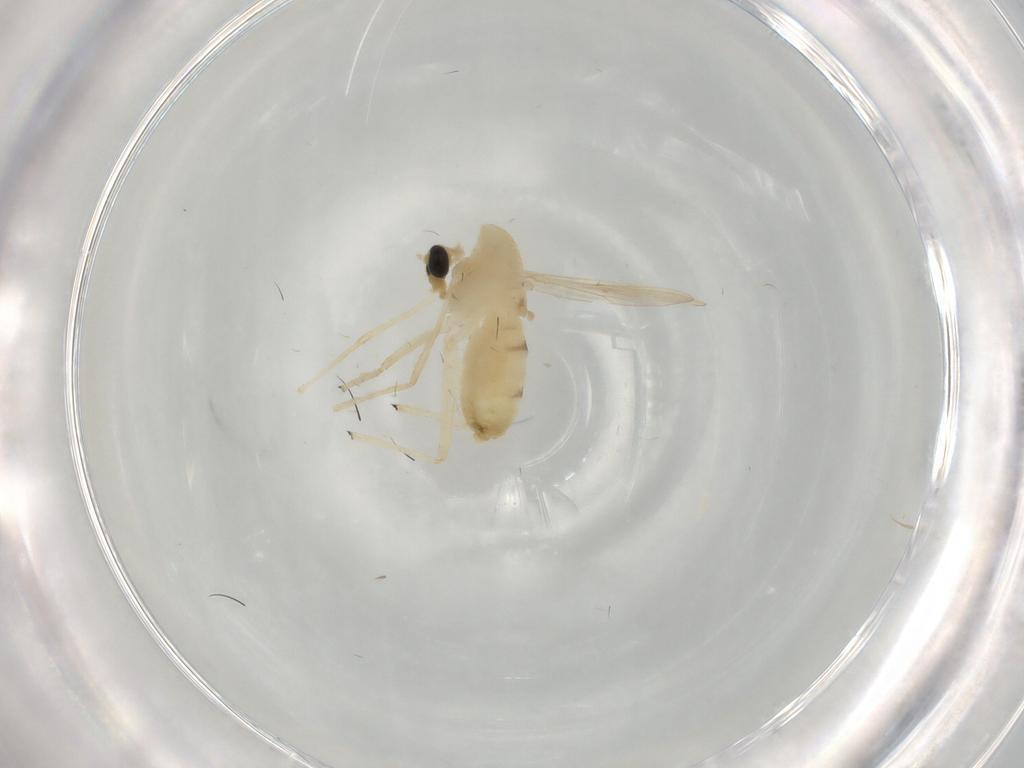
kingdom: Animalia
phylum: Arthropoda
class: Insecta
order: Diptera
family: Chironomidae
